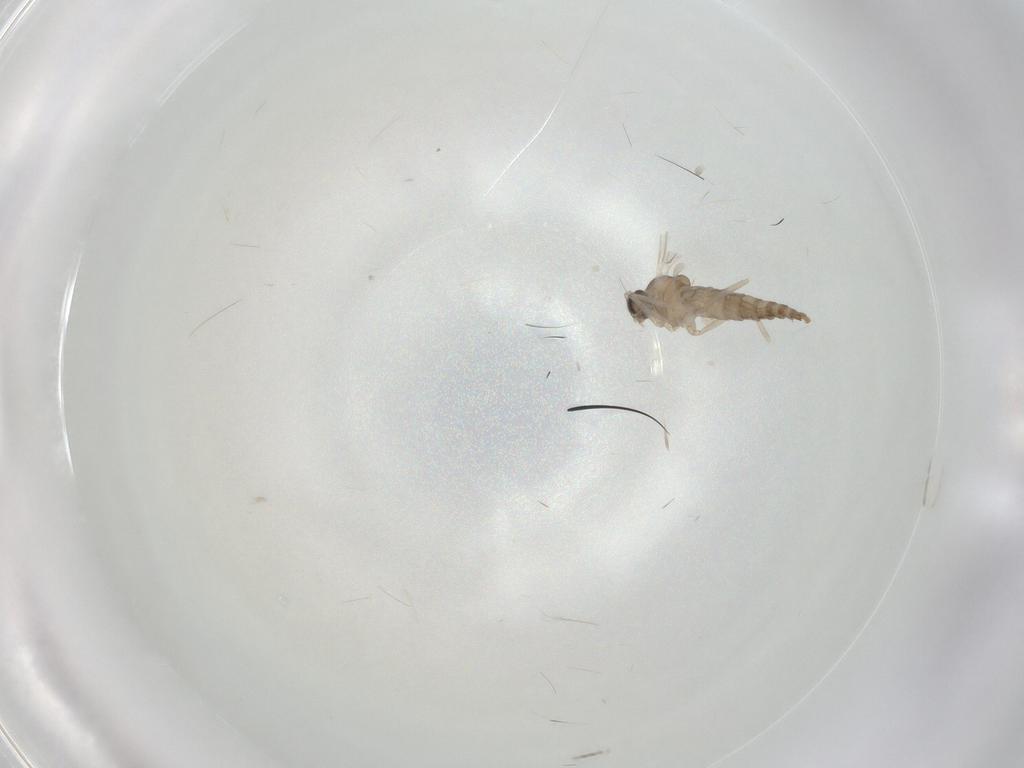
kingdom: Animalia
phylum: Arthropoda
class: Insecta
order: Diptera
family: Cecidomyiidae
